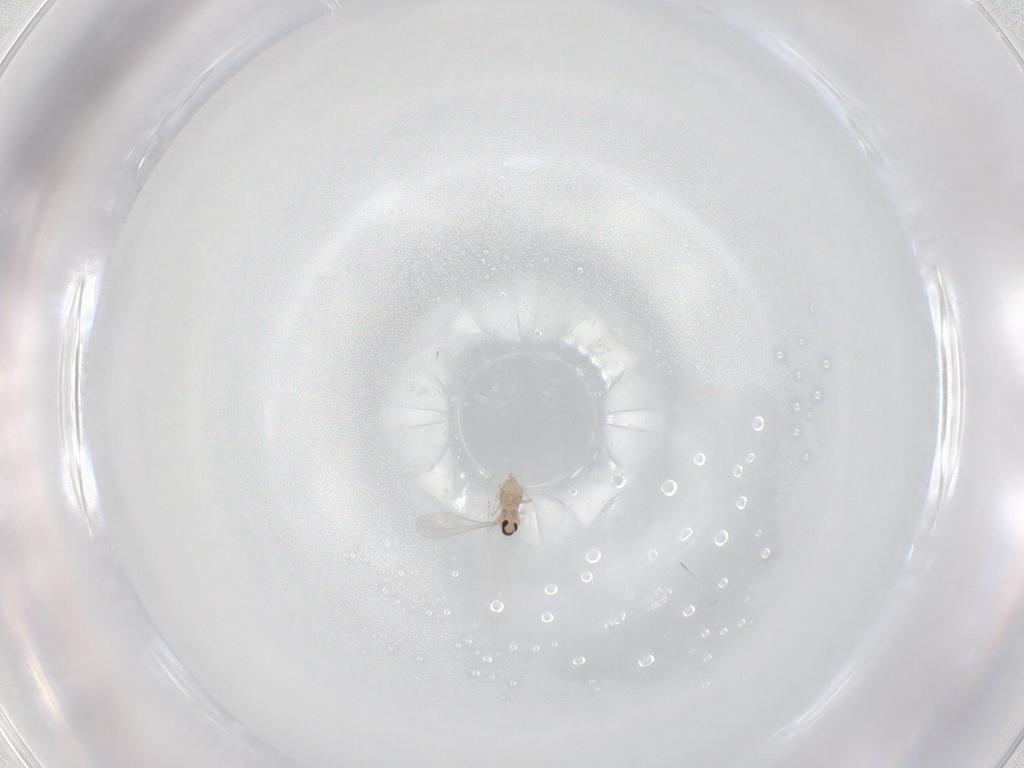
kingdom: Animalia
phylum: Arthropoda
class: Insecta
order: Diptera
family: Cecidomyiidae
